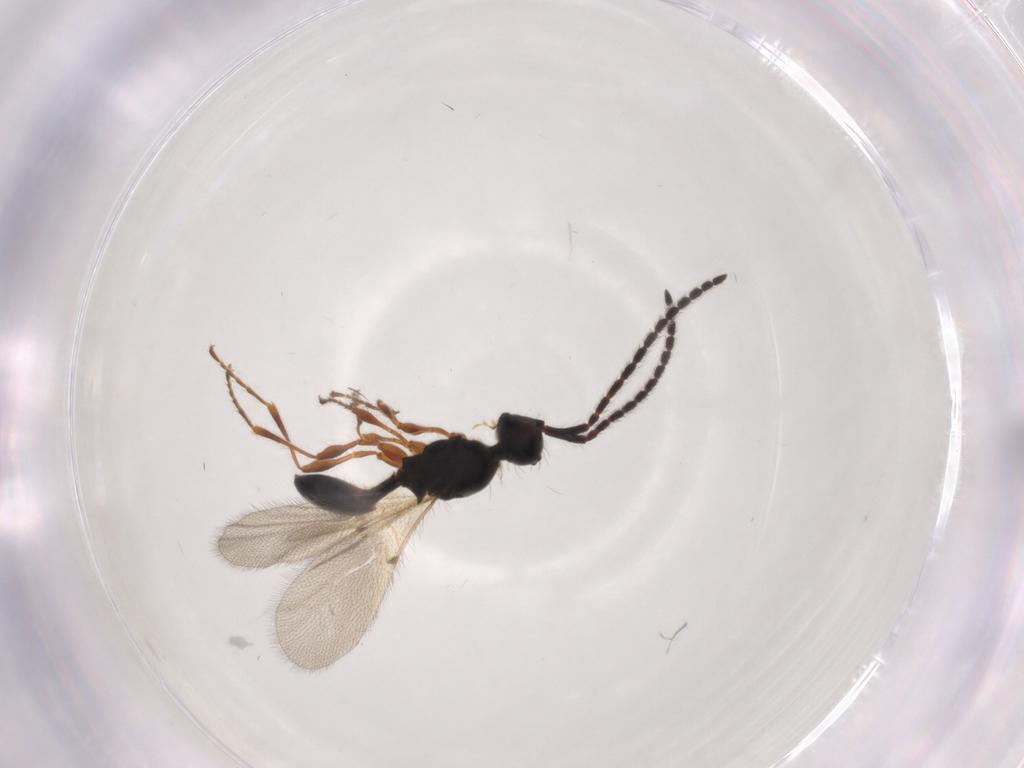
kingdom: Animalia
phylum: Arthropoda
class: Insecta
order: Hymenoptera
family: Diapriidae
